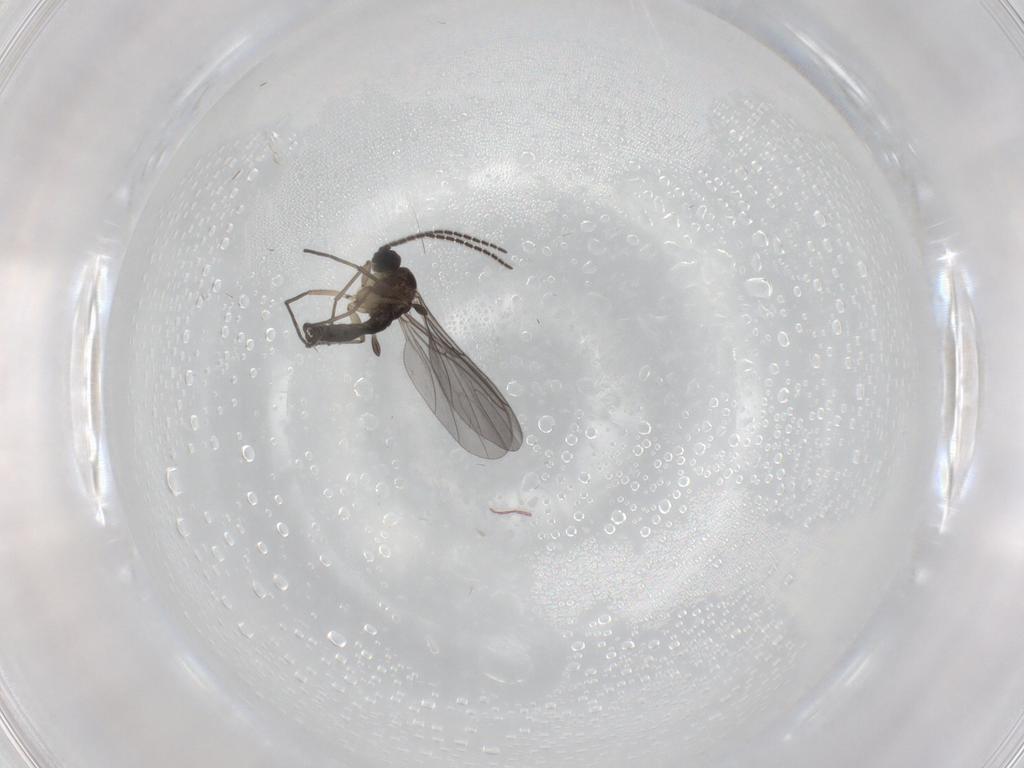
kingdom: Animalia
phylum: Arthropoda
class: Insecta
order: Diptera
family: Sciaridae
